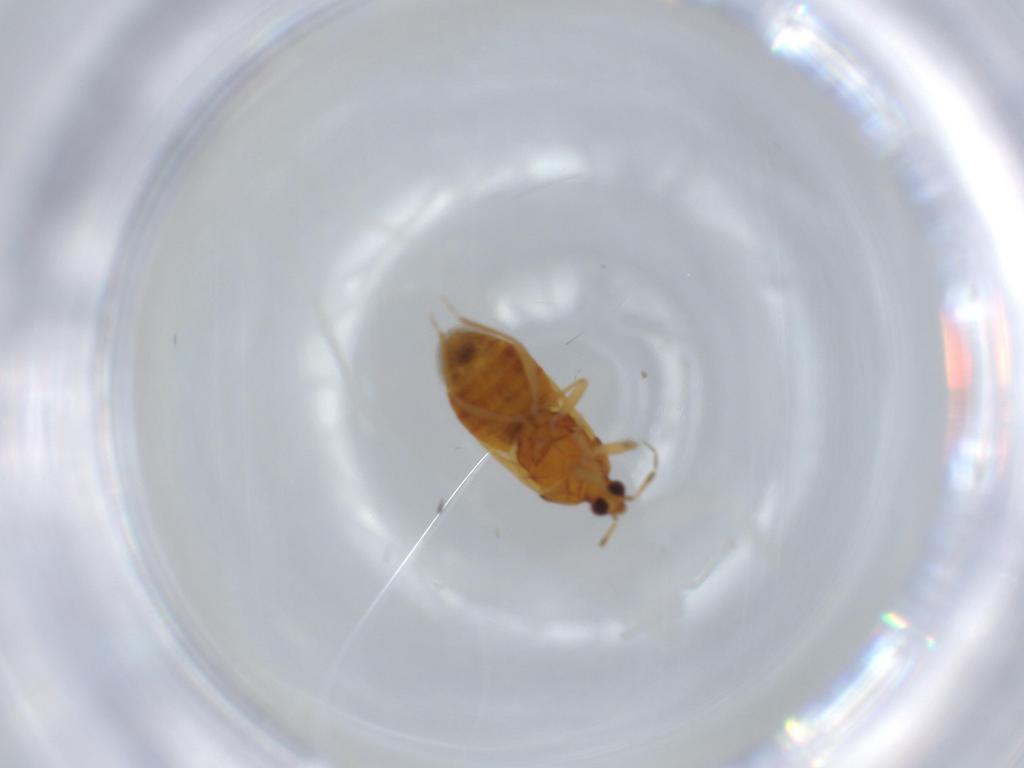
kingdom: Animalia
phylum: Arthropoda
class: Insecta
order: Hemiptera
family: Anthocoridae
